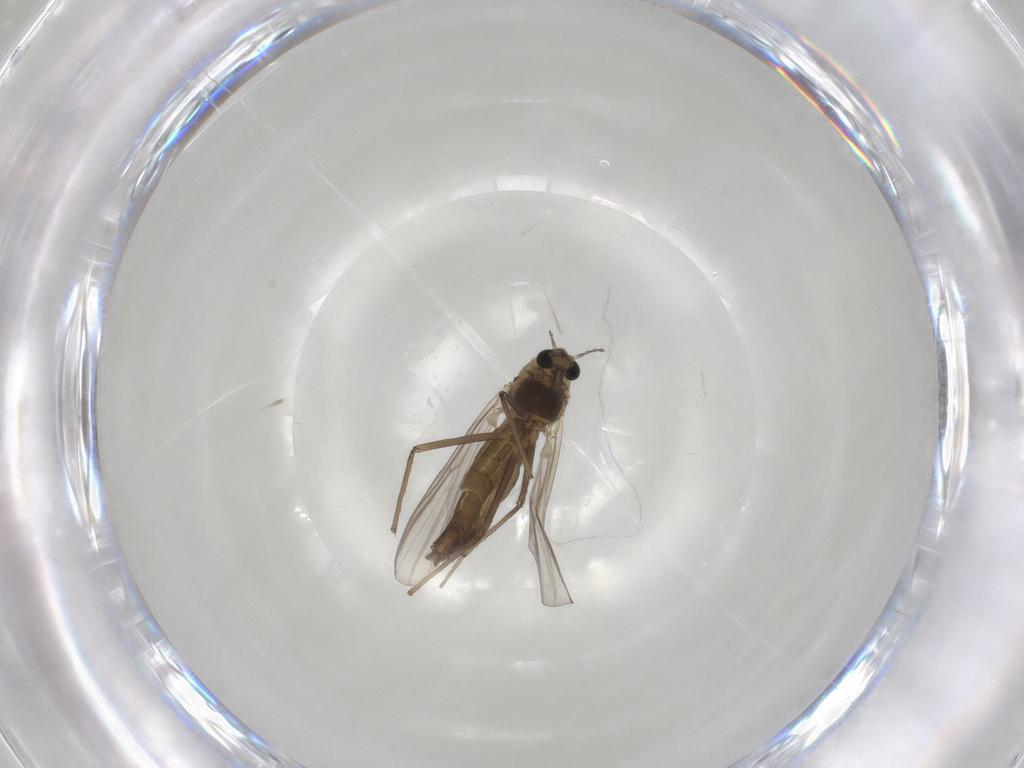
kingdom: Animalia
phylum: Arthropoda
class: Insecta
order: Diptera
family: Chironomidae
